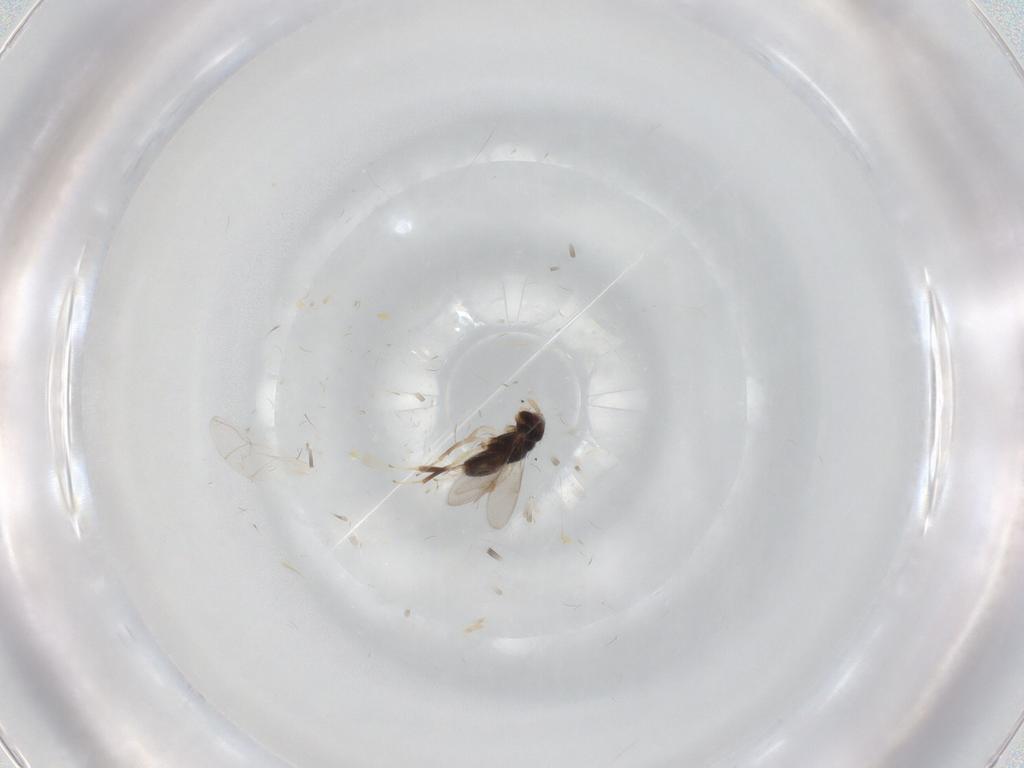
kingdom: Animalia
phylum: Arthropoda
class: Insecta
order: Hymenoptera
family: Aphelinidae
